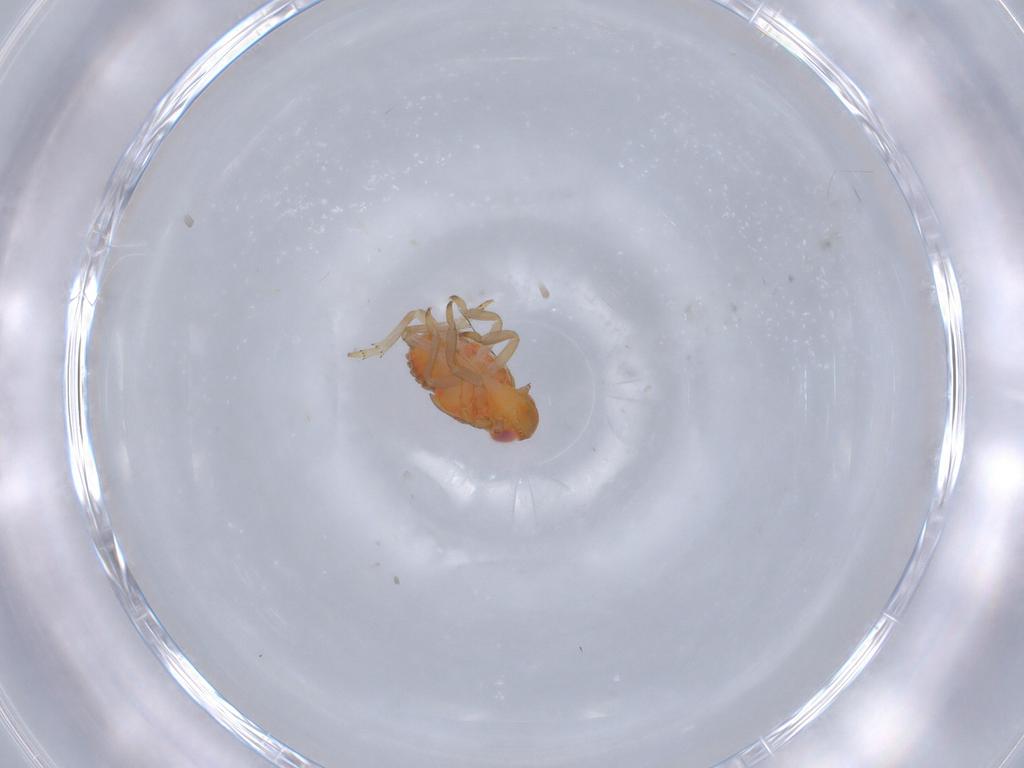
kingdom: Animalia
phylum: Arthropoda
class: Insecta
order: Hemiptera
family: Fulgoroidea_incertae_sedis
